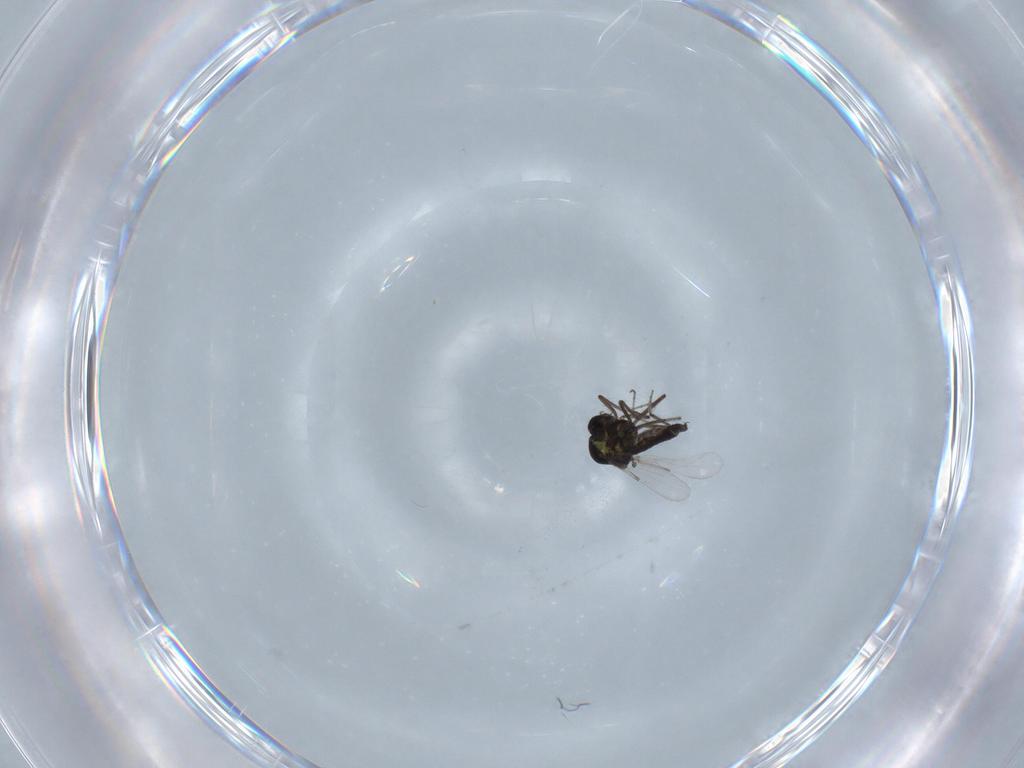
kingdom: Animalia
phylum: Arthropoda
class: Insecta
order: Diptera
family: Ceratopogonidae
